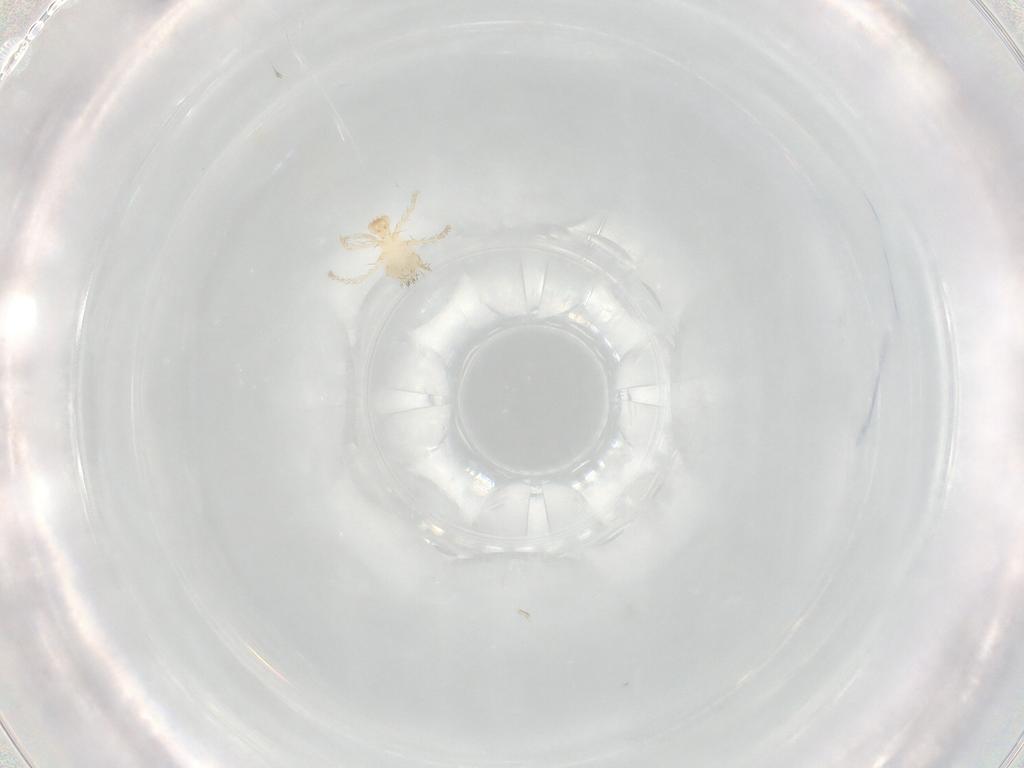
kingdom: Animalia
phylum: Arthropoda
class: Arachnida
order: Trombidiformes
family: Erythraeidae
